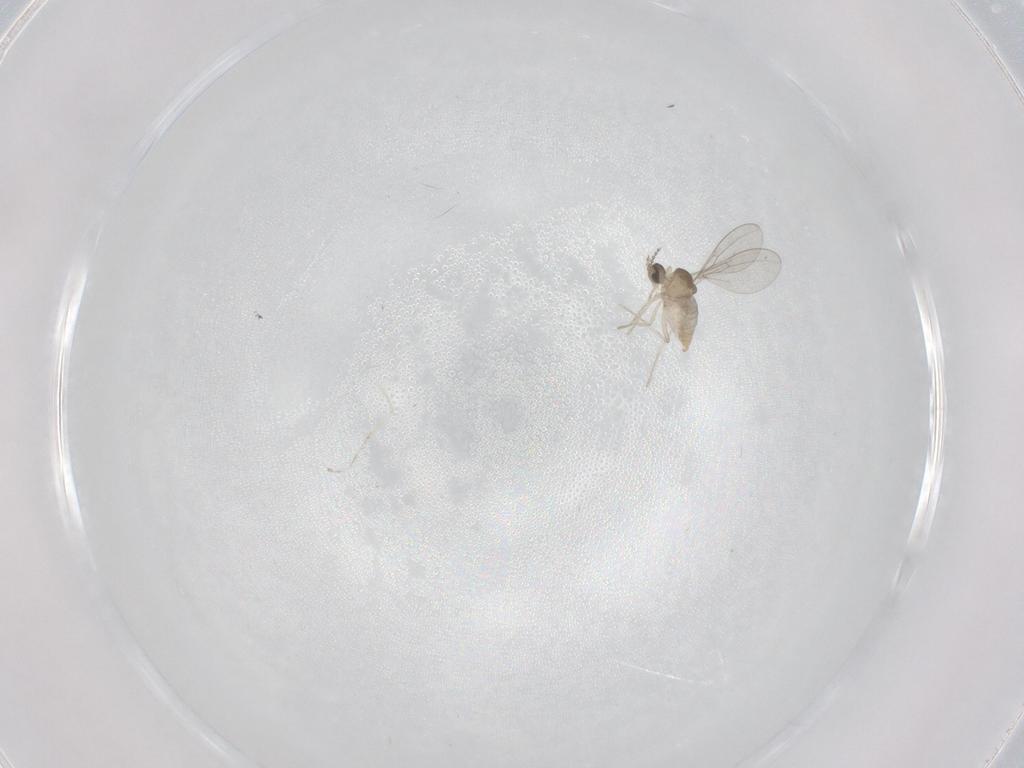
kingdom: Animalia
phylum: Arthropoda
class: Insecta
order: Diptera
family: Cecidomyiidae
